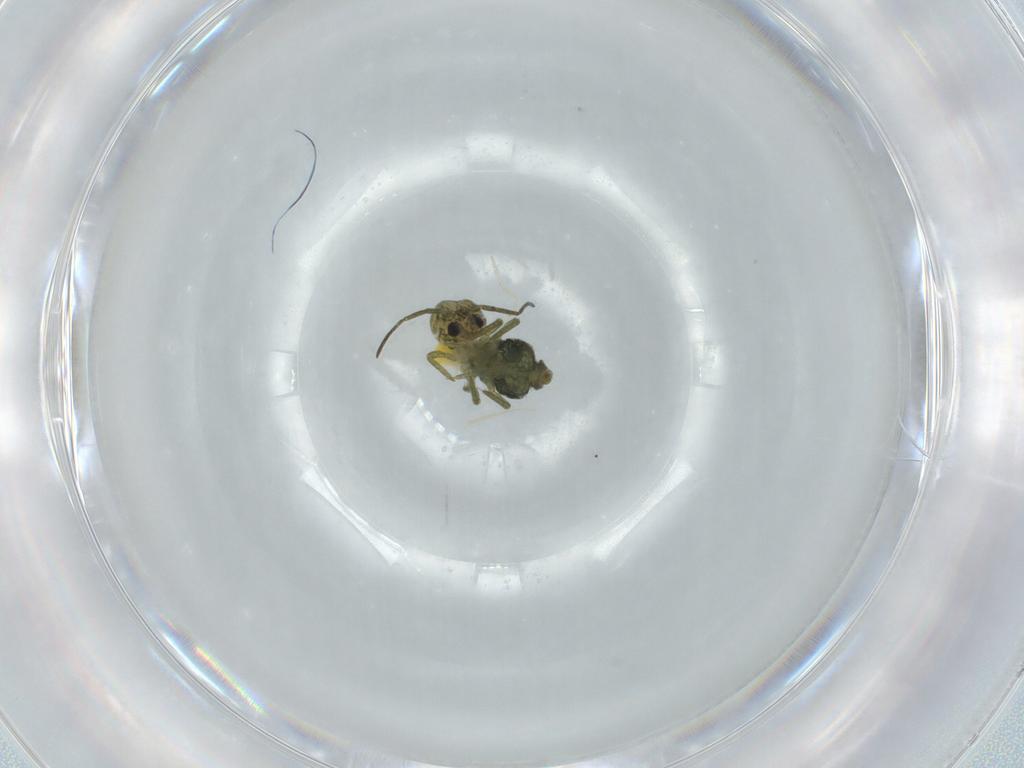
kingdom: Animalia
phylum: Arthropoda
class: Collembola
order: Symphypleona
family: Sminthuridae
